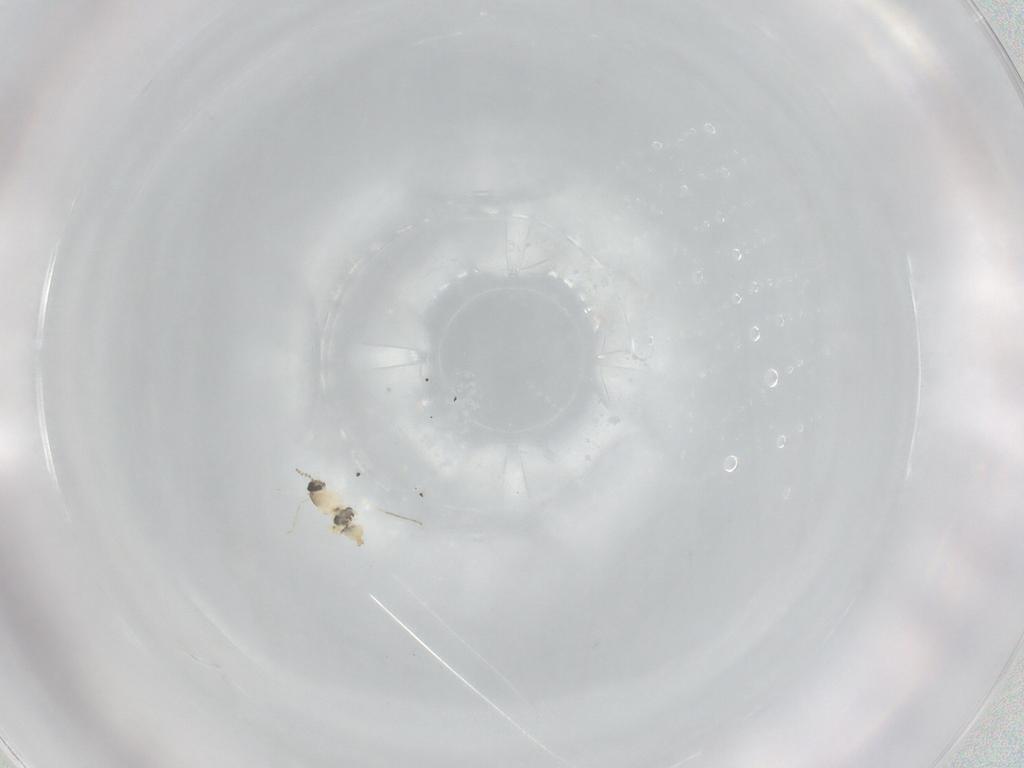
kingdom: Animalia
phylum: Arthropoda
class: Insecta
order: Diptera
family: Cecidomyiidae
